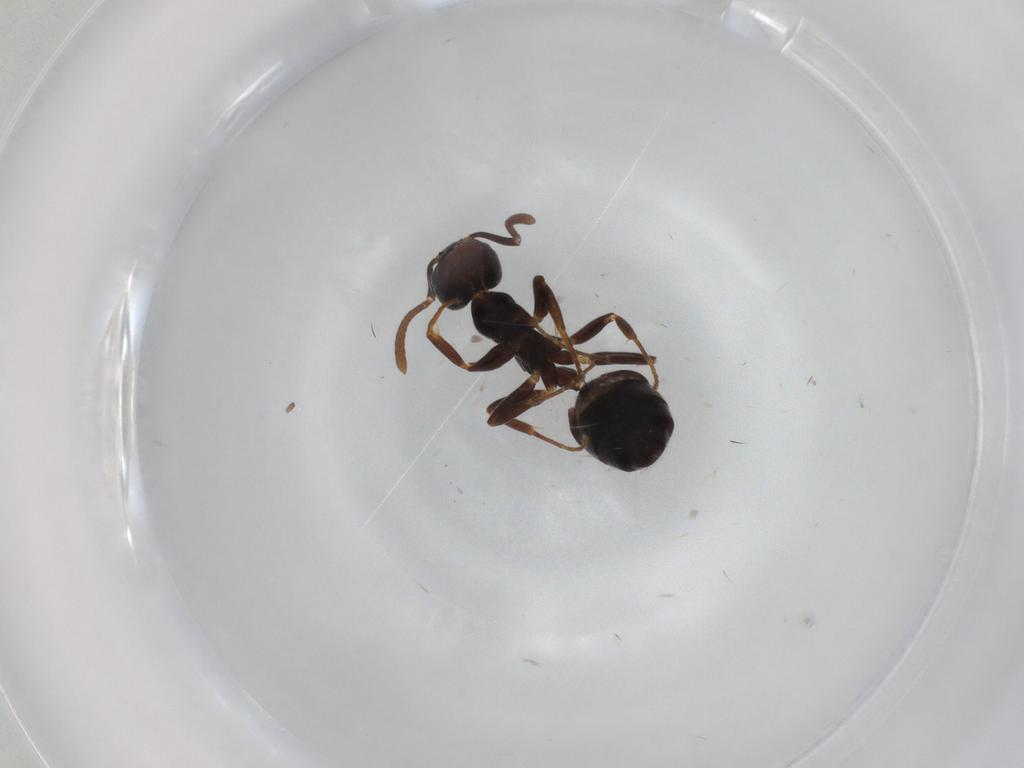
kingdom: Animalia
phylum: Arthropoda
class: Insecta
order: Hymenoptera
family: Formicidae
